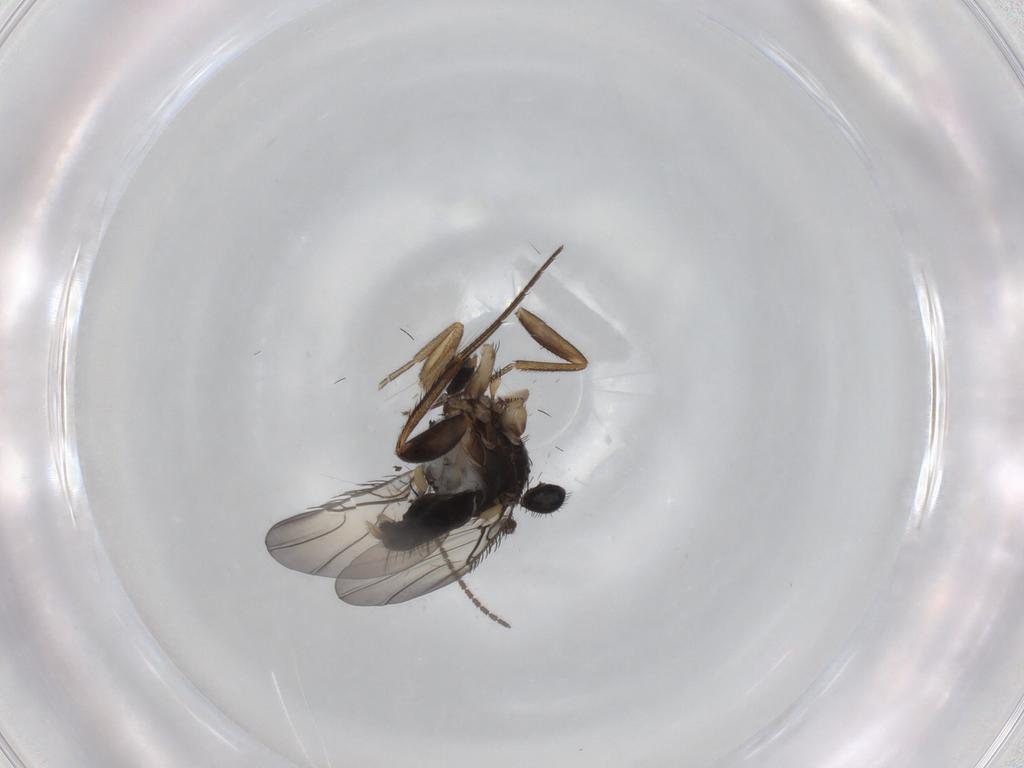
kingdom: Animalia
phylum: Arthropoda
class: Insecta
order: Diptera
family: Phoridae
